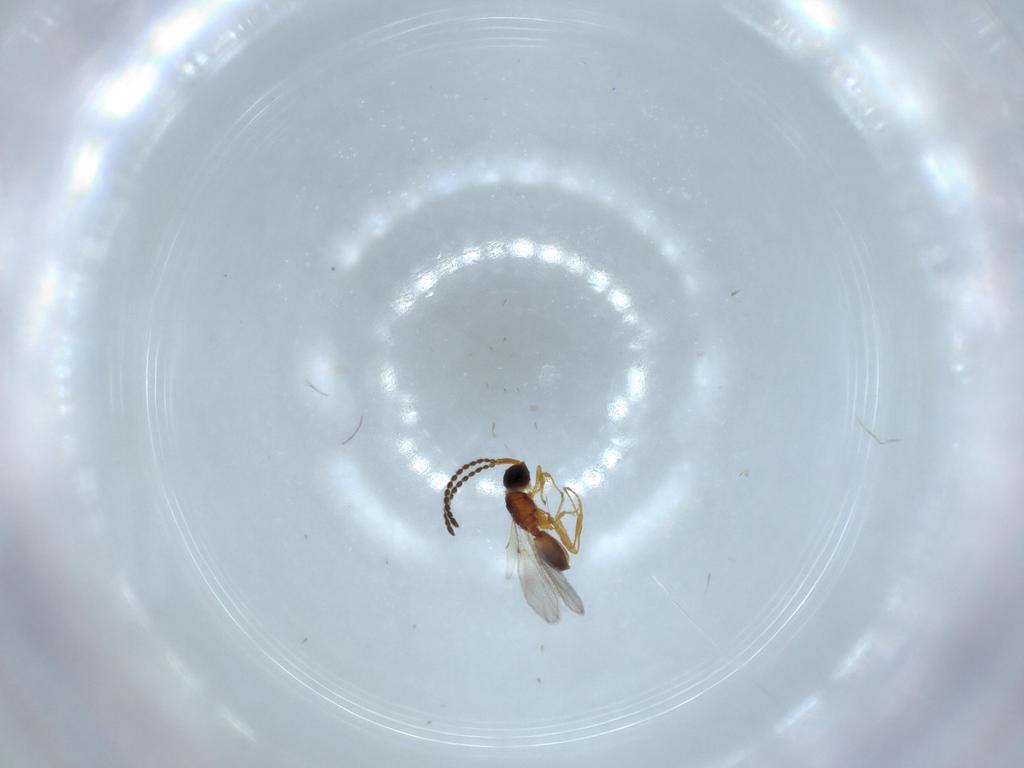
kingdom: Animalia
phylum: Arthropoda
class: Insecta
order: Hymenoptera
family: Diapriidae
